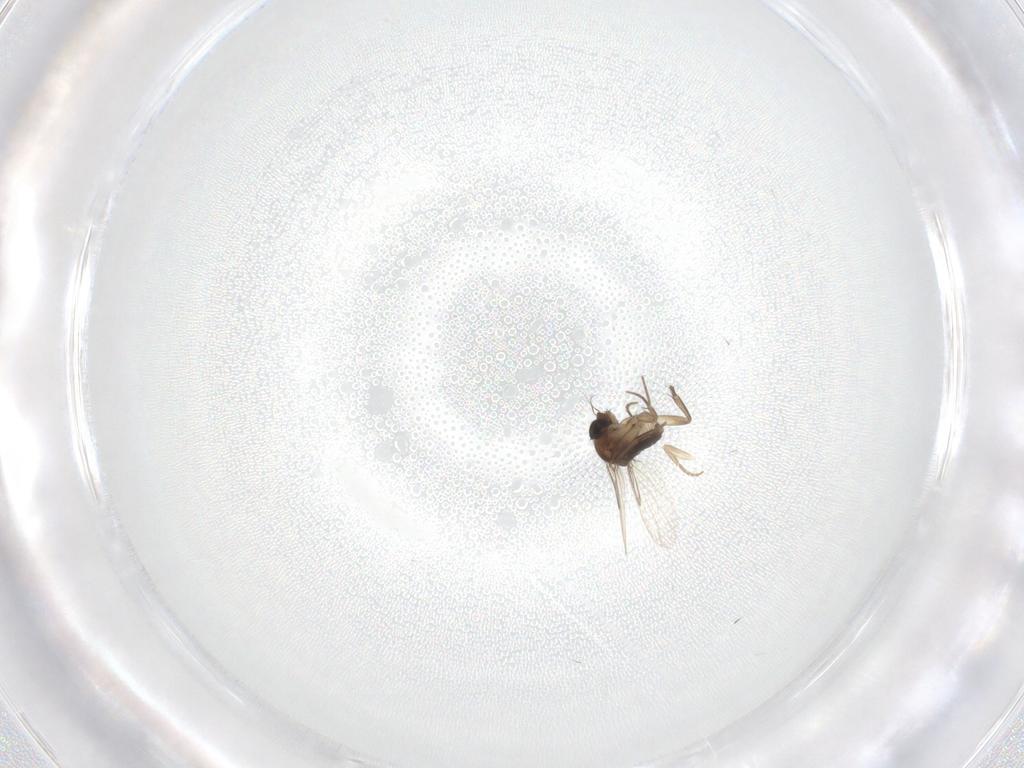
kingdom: Animalia
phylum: Arthropoda
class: Insecta
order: Diptera
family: Phoridae
